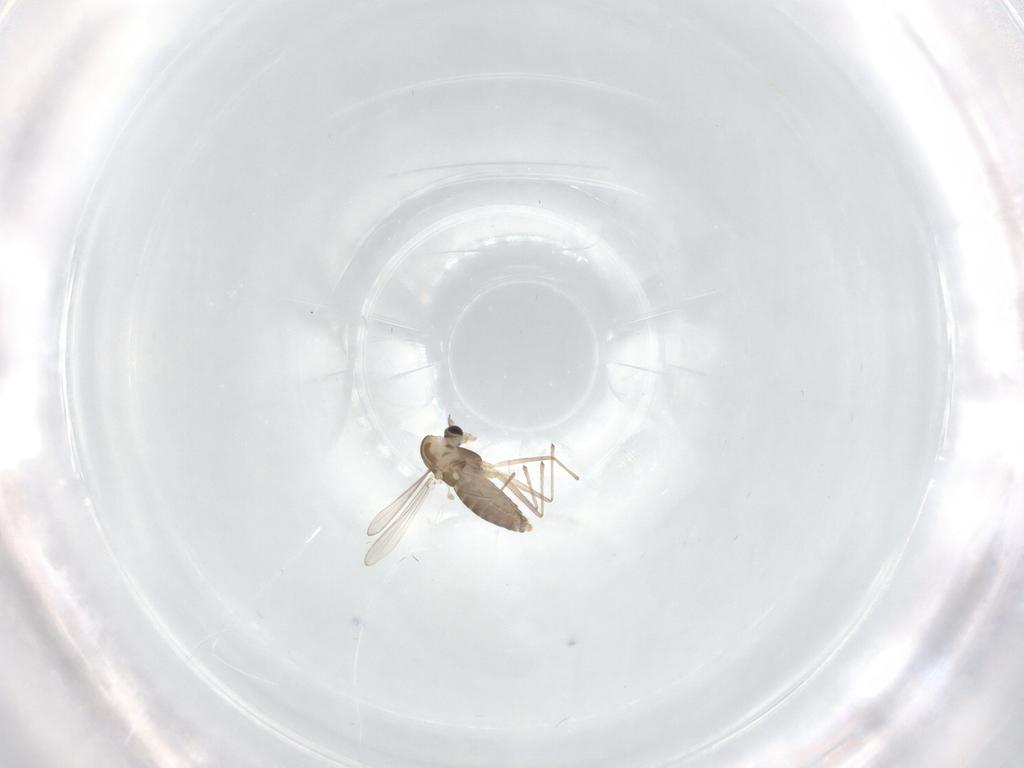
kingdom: Animalia
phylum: Arthropoda
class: Insecta
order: Diptera
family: Chironomidae
